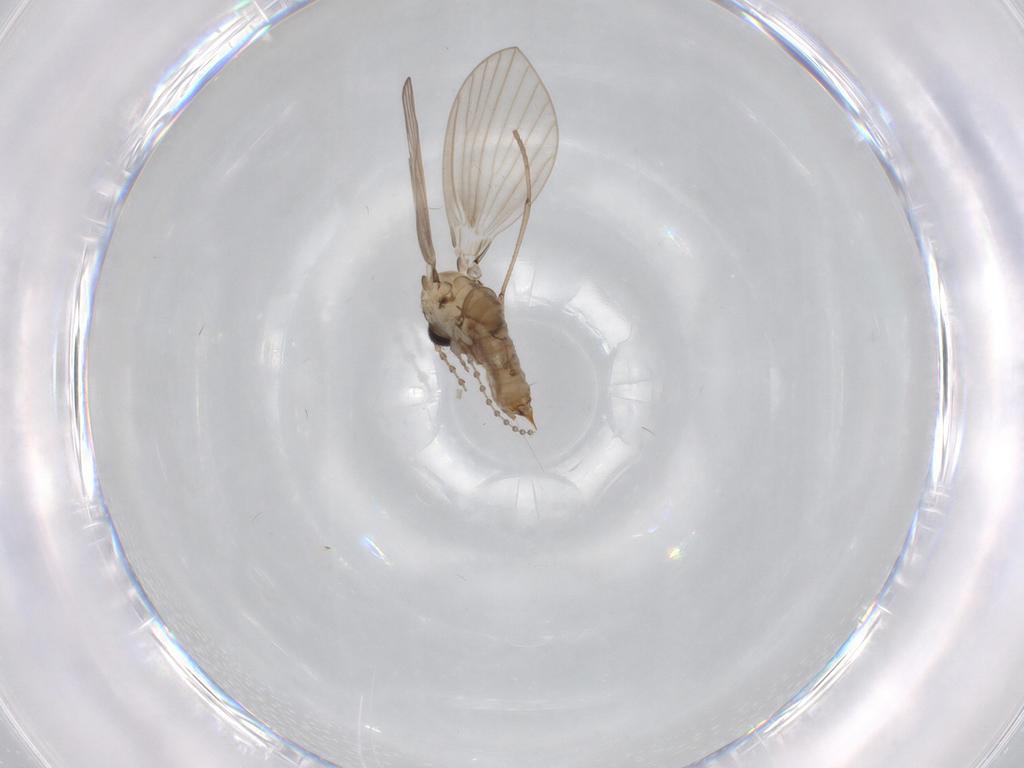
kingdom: Animalia
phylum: Arthropoda
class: Insecta
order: Diptera
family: Psychodidae
